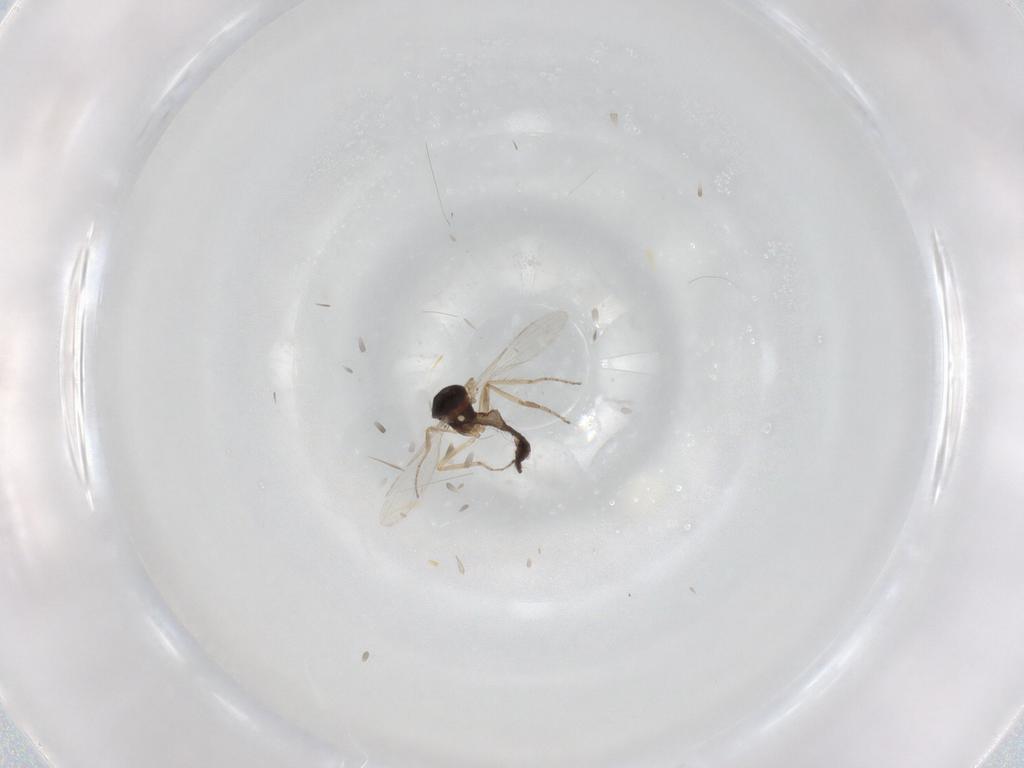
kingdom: Animalia
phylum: Arthropoda
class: Insecta
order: Diptera
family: Ceratopogonidae
